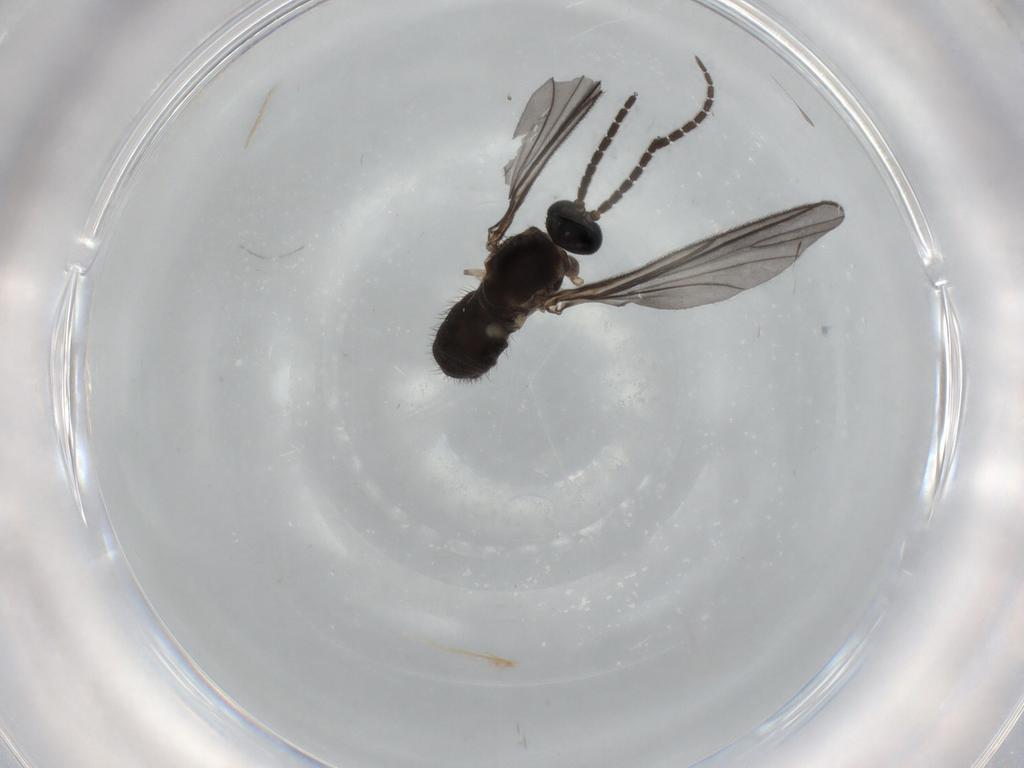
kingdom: Animalia
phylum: Arthropoda
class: Insecta
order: Diptera
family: Sciaridae
